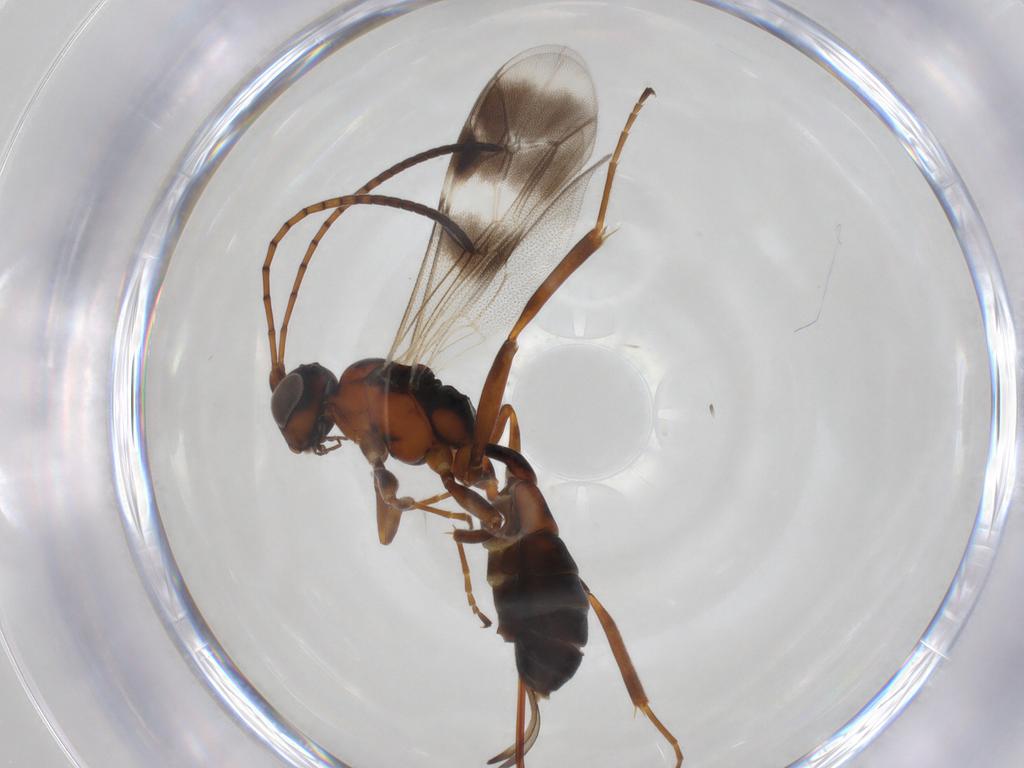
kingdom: Animalia
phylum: Arthropoda
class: Insecta
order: Hymenoptera
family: Ichneumonidae
